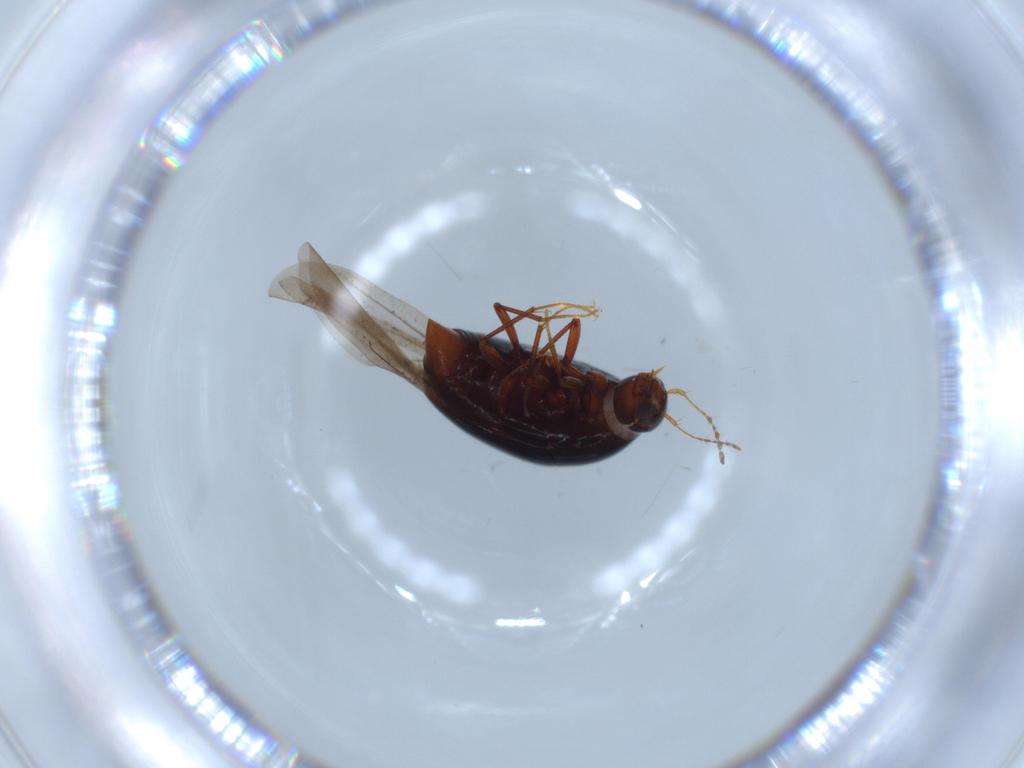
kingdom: Animalia
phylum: Arthropoda
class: Insecta
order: Coleoptera
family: Staphylinidae
